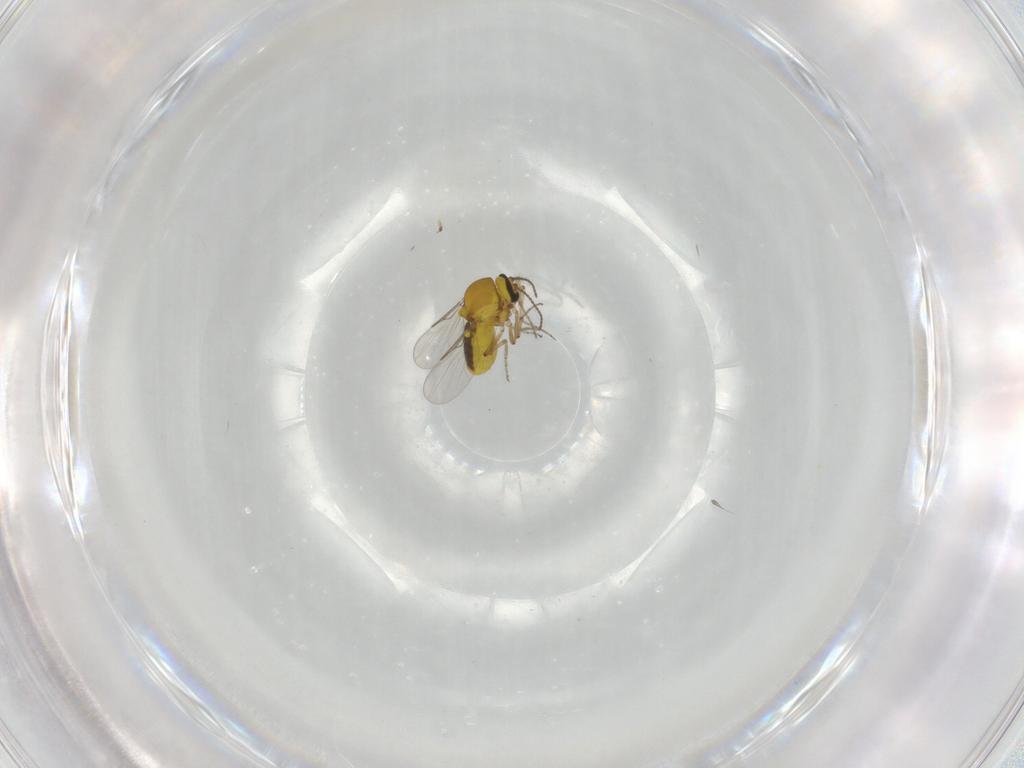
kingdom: Animalia
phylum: Arthropoda
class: Insecta
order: Diptera
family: Ceratopogonidae
